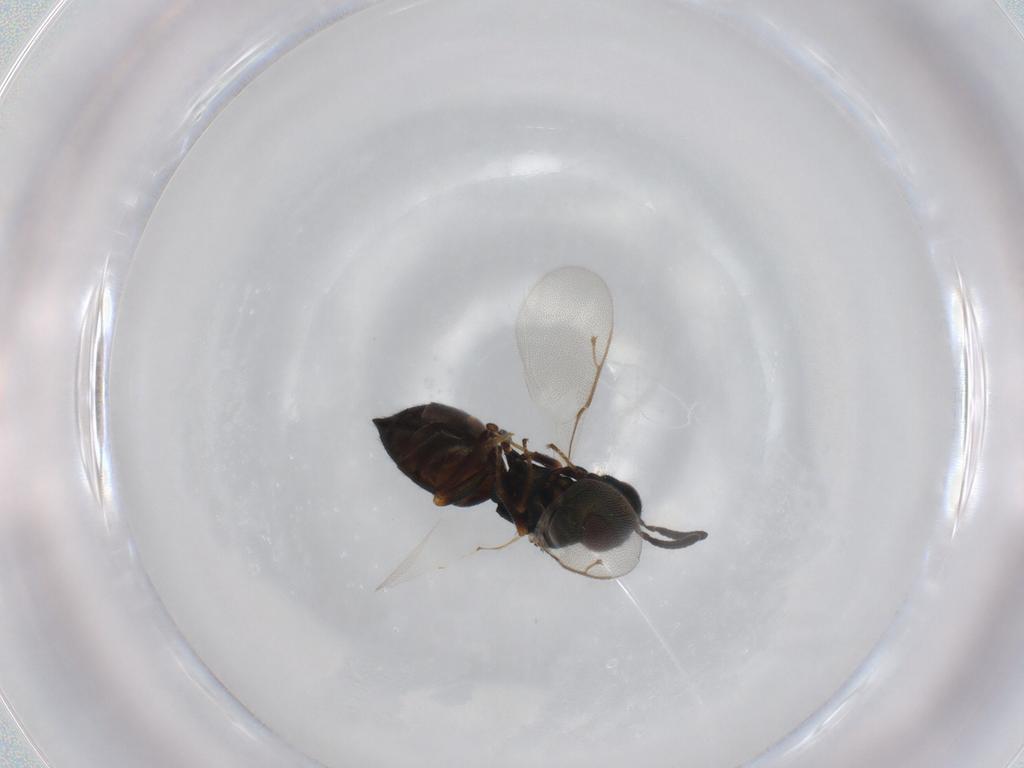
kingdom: Animalia
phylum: Arthropoda
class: Insecta
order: Hymenoptera
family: Pteromalidae
